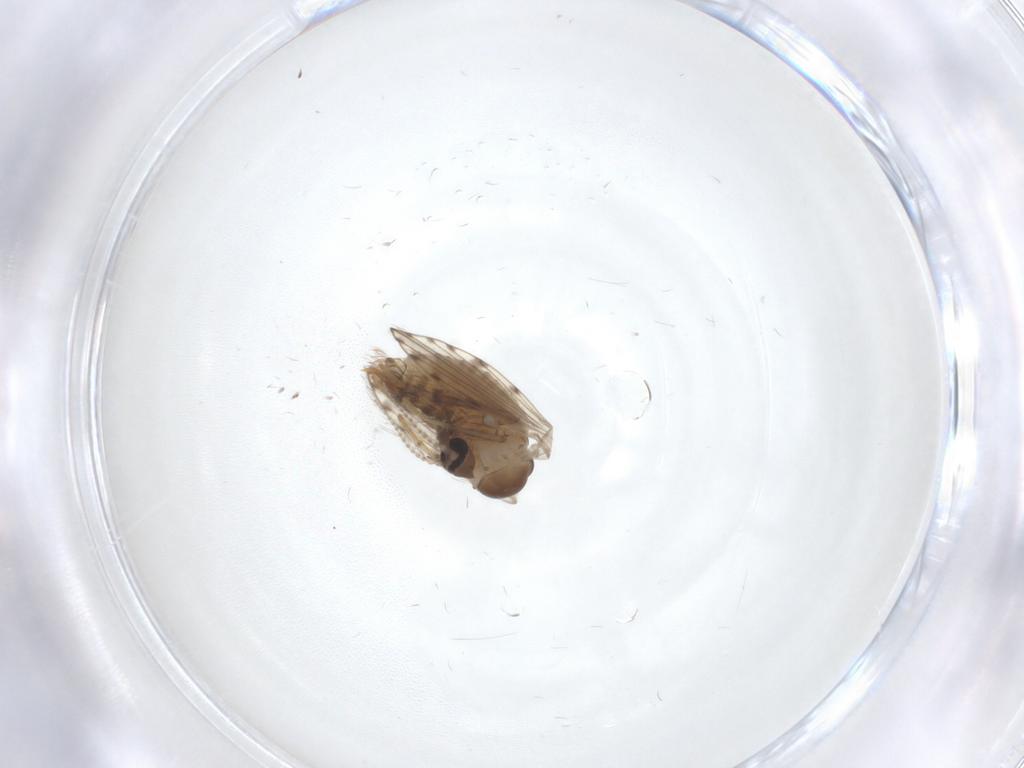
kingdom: Animalia
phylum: Arthropoda
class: Insecta
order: Diptera
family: Psychodidae
